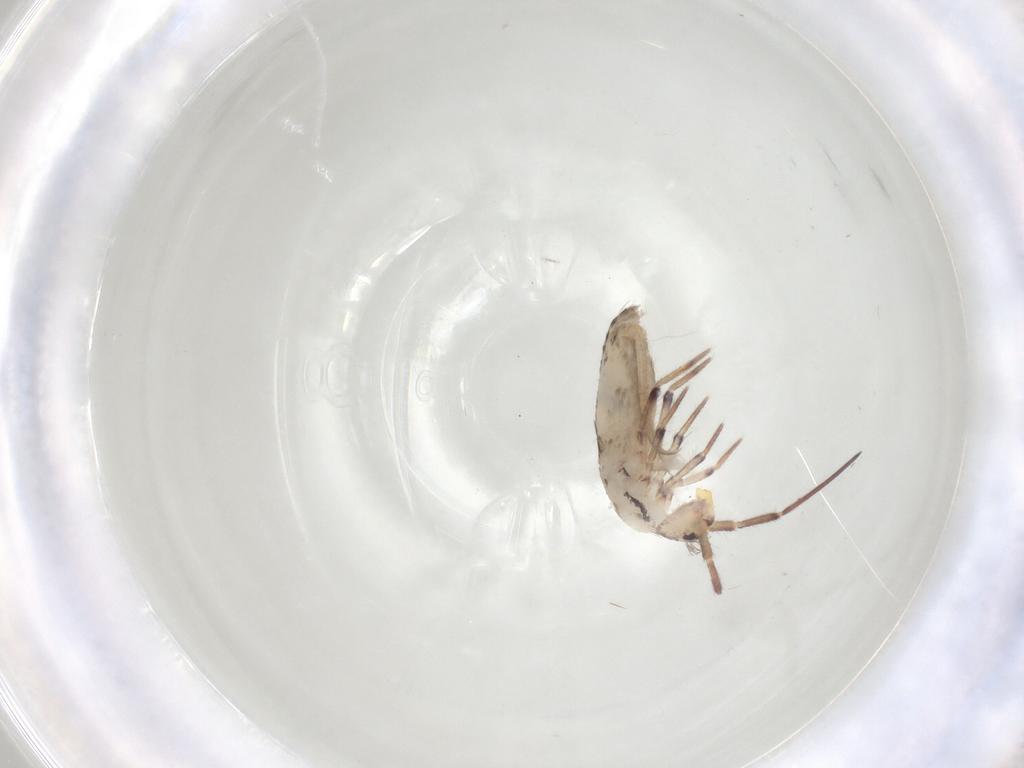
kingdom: Animalia
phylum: Arthropoda
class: Collembola
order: Entomobryomorpha
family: Entomobryidae
